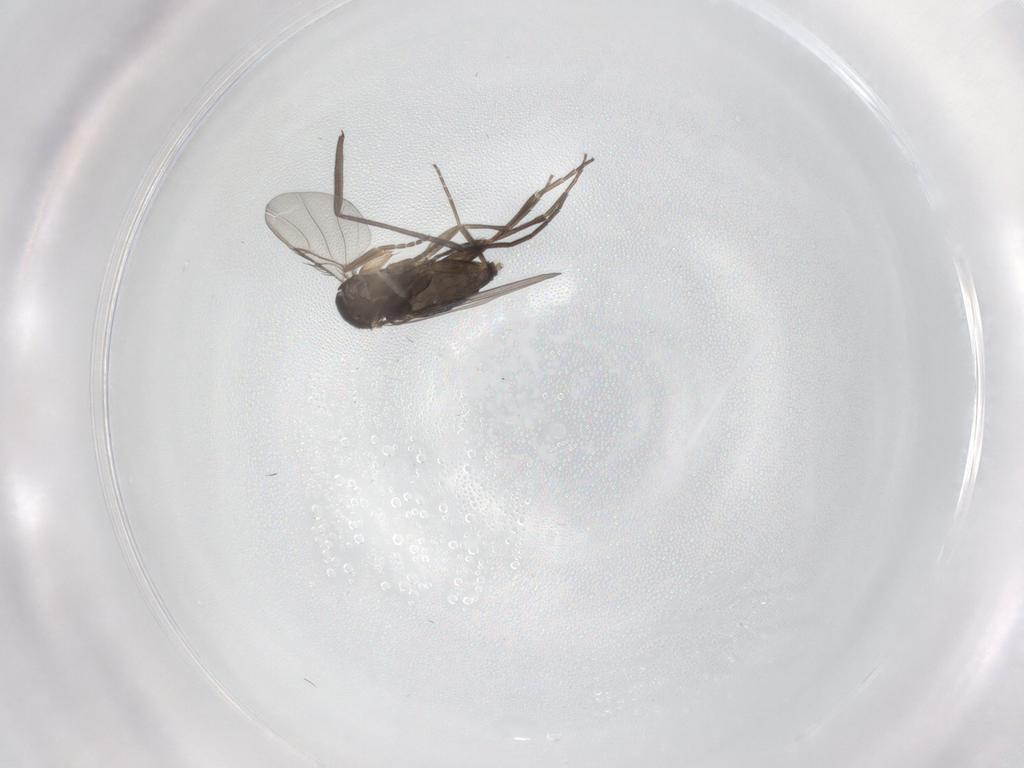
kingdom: Animalia
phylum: Arthropoda
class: Insecta
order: Diptera
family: Phoridae
